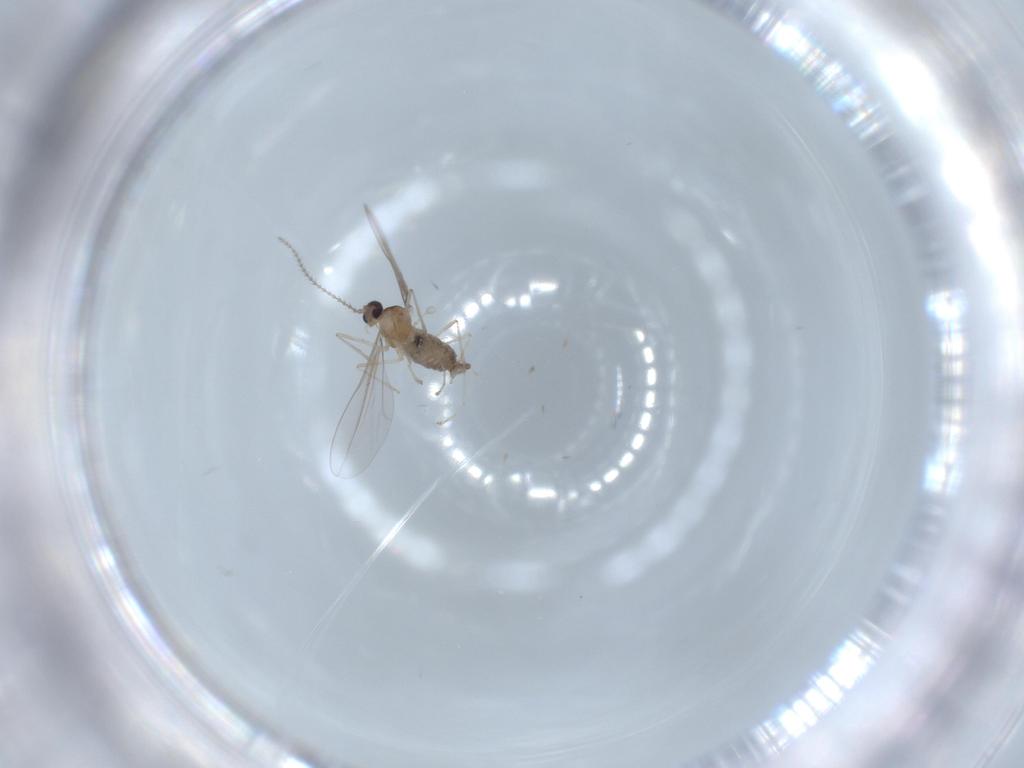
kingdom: Animalia
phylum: Arthropoda
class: Insecta
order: Diptera
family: Cecidomyiidae
